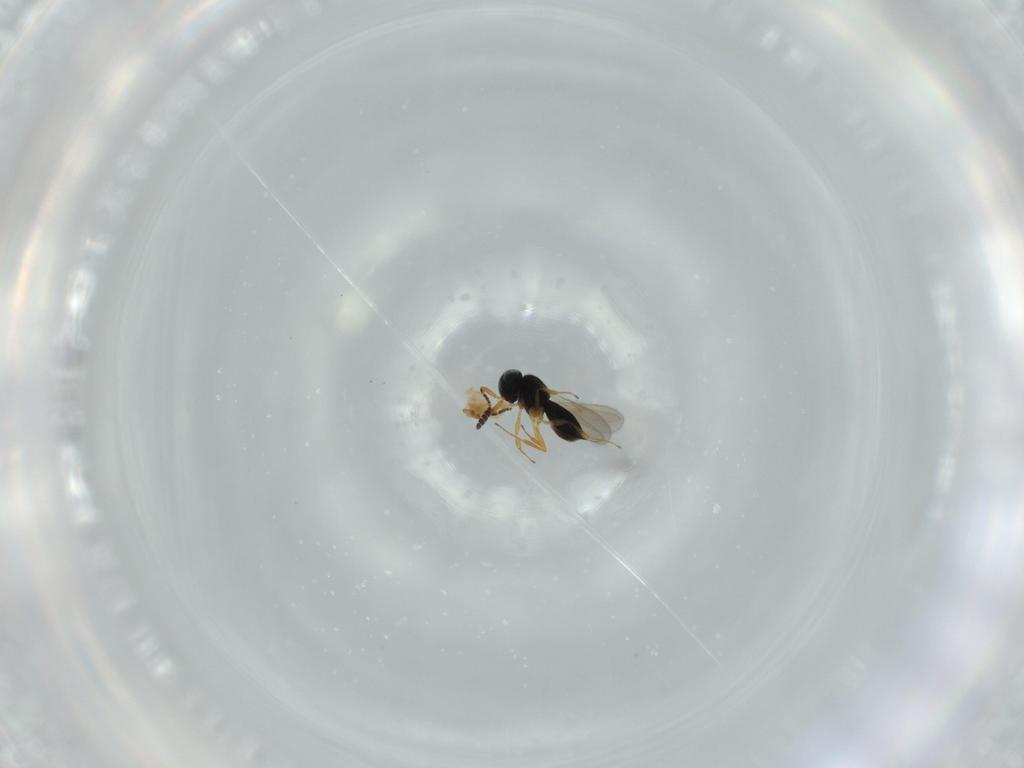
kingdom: Animalia
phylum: Arthropoda
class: Insecta
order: Hymenoptera
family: Scelionidae
